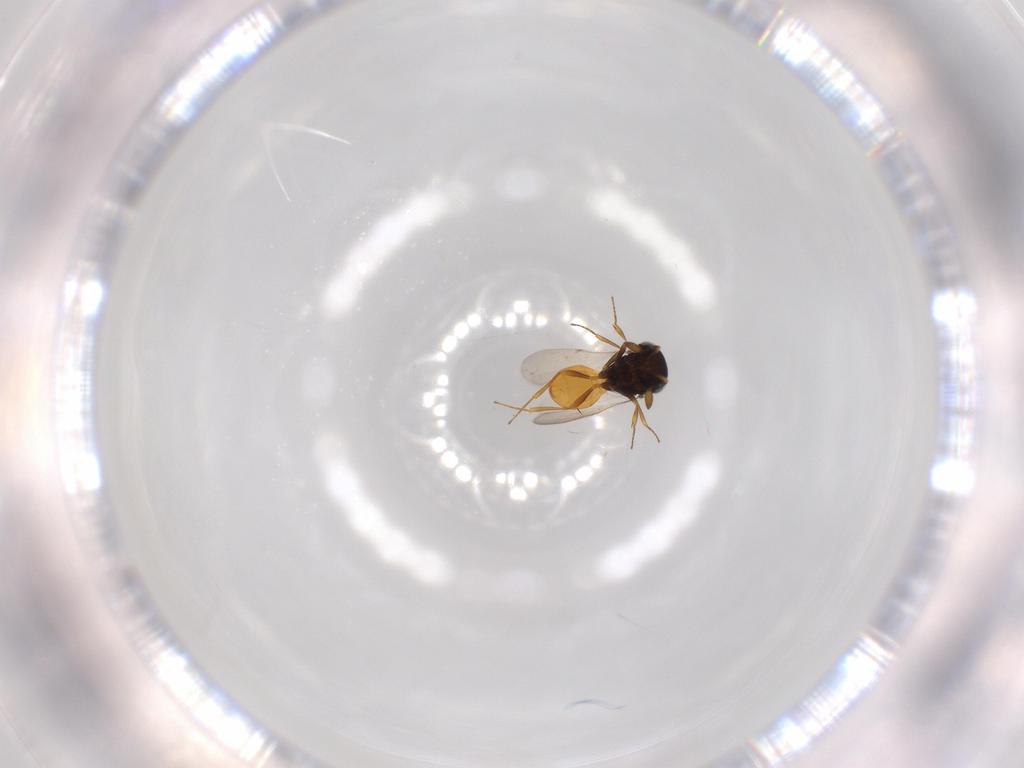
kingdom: Animalia
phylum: Arthropoda
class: Insecta
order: Hymenoptera
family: Scelionidae
